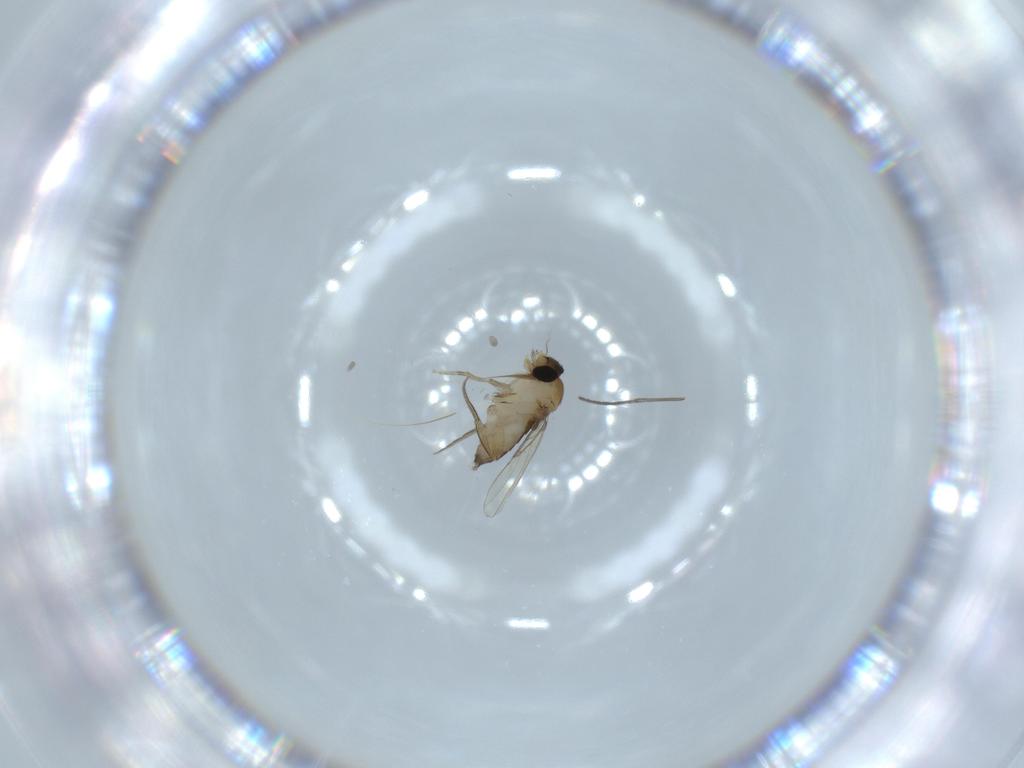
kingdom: Animalia
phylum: Arthropoda
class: Insecta
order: Diptera
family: Phoridae
